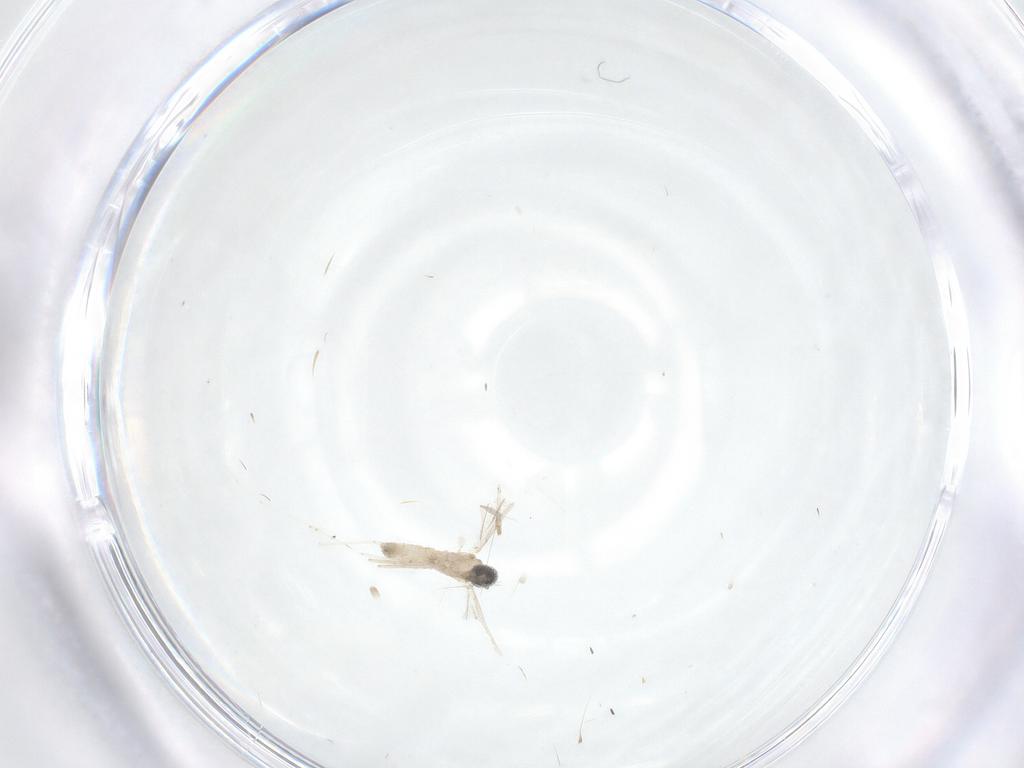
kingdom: Animalia
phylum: Arthropoda
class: Insecta
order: Diptera
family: Cecidomyiidae
